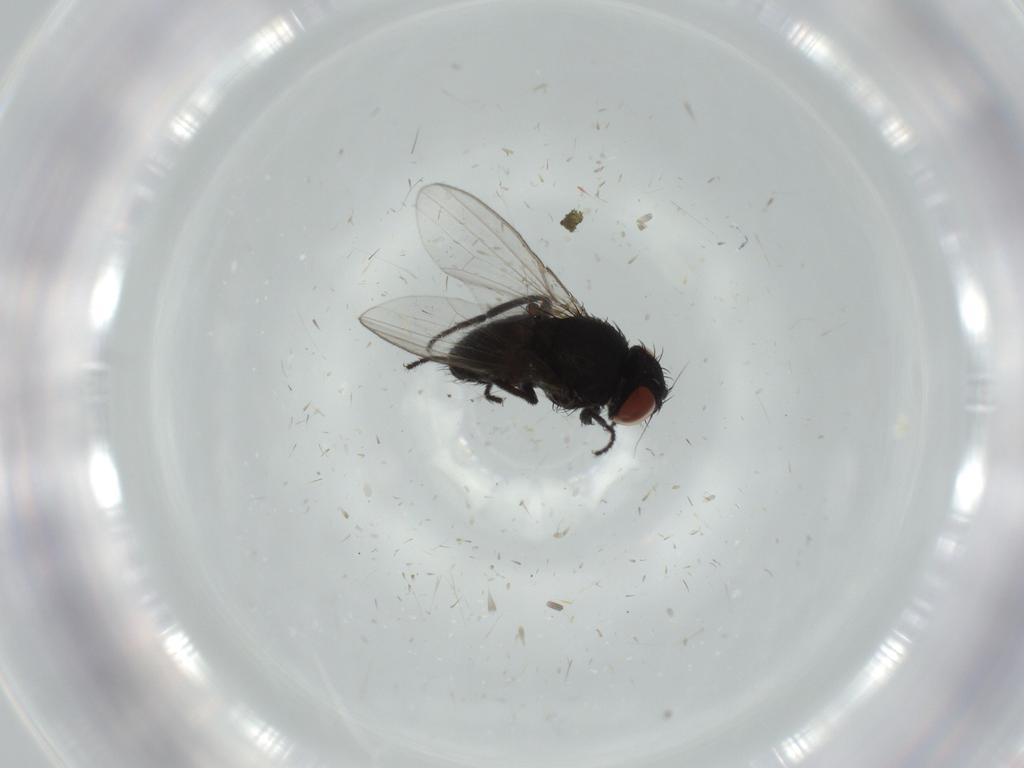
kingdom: Animalia
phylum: Arthropoda
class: Insecta
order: Diptera
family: Milichiidae
